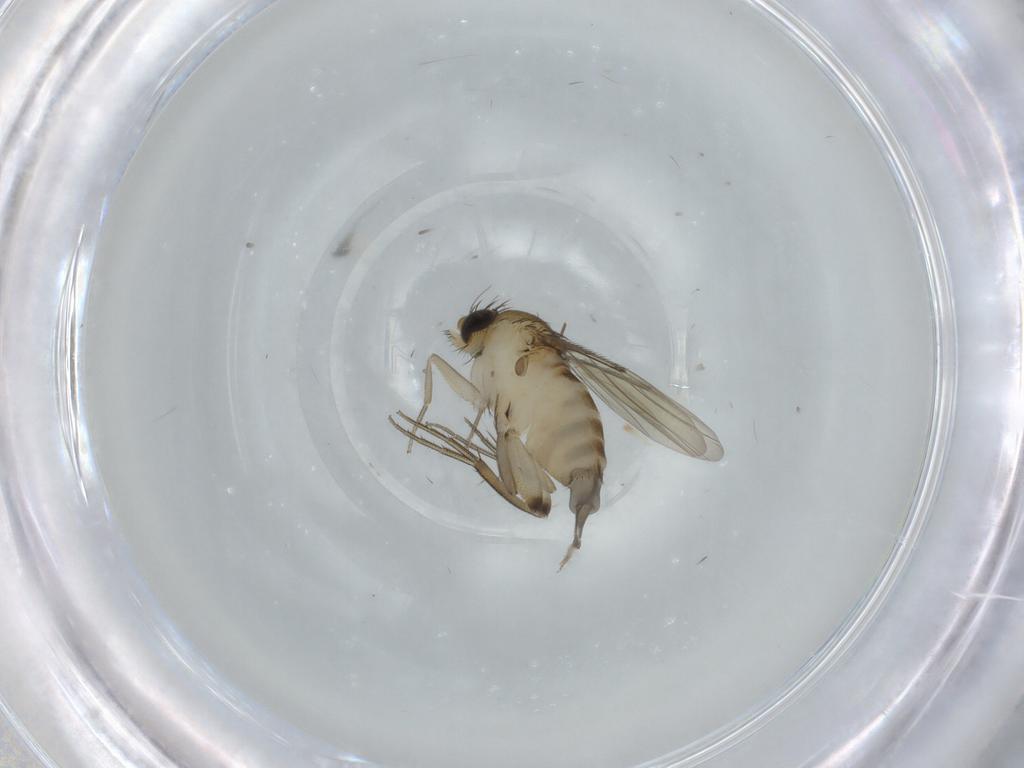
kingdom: Animalia
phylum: Arthropoda
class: Insecta
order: Diptera
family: Phoridae
